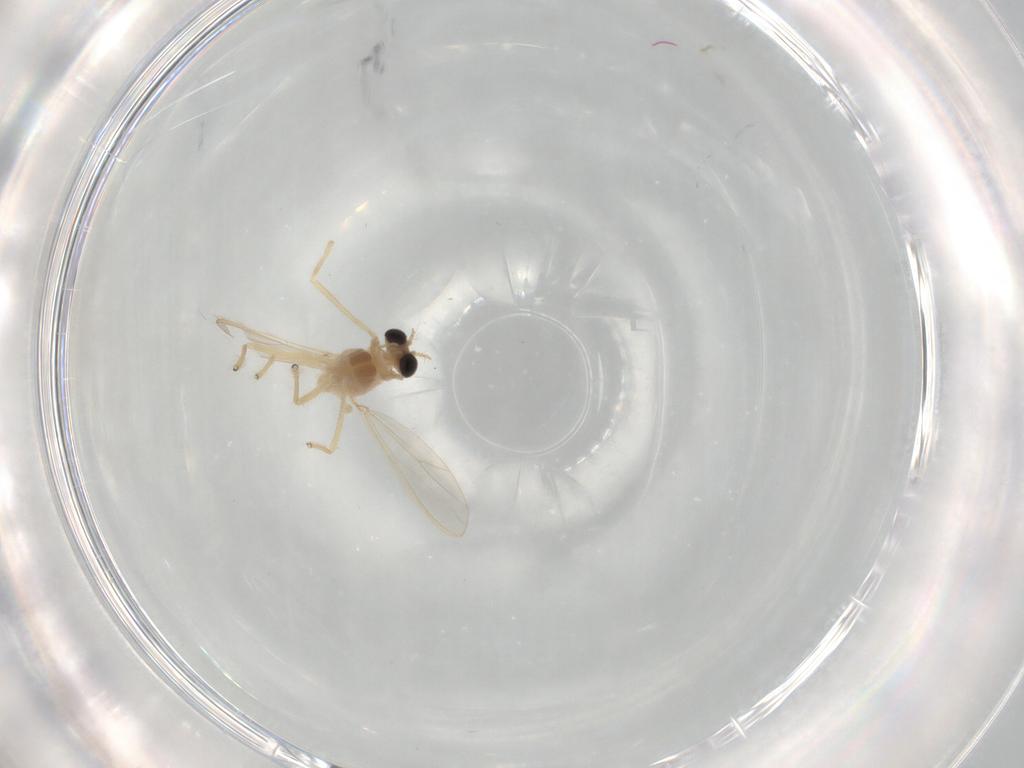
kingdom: Animalia
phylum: Arthropoda
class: Insecta
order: Diptera
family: Chironomidae
